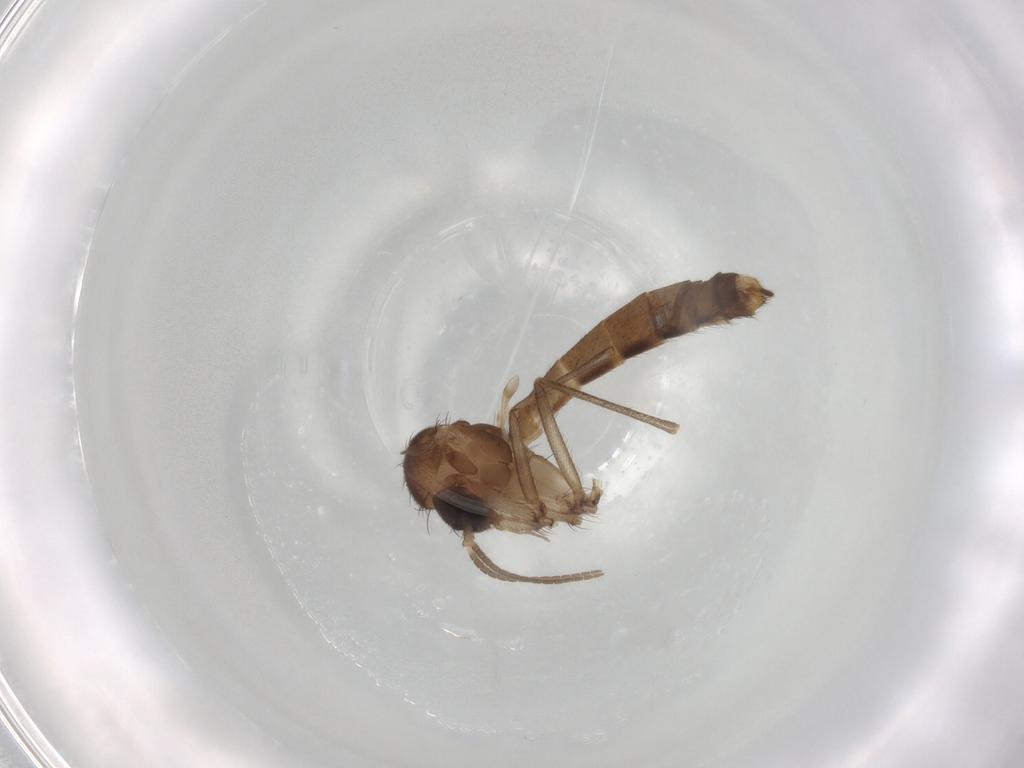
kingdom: Animalia
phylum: Arthropoda
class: Insecta
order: Diptera
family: Mycetophilidae
